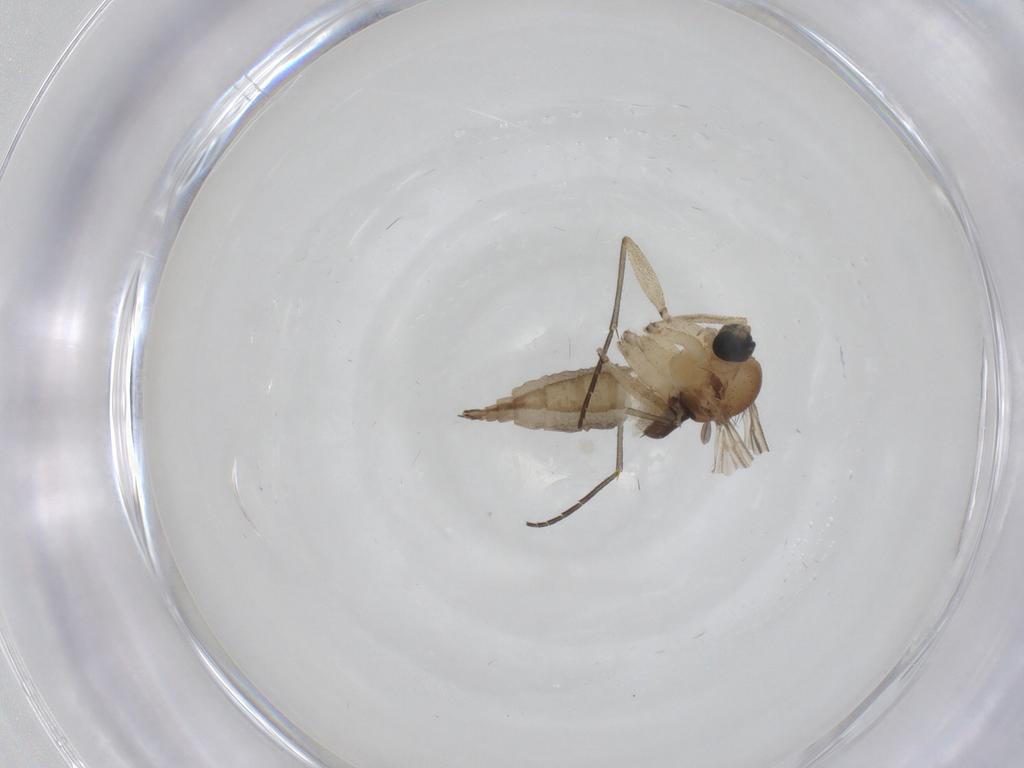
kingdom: Animalia
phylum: Arthropoda
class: Insecta
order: Diptera
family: Sciaridae
